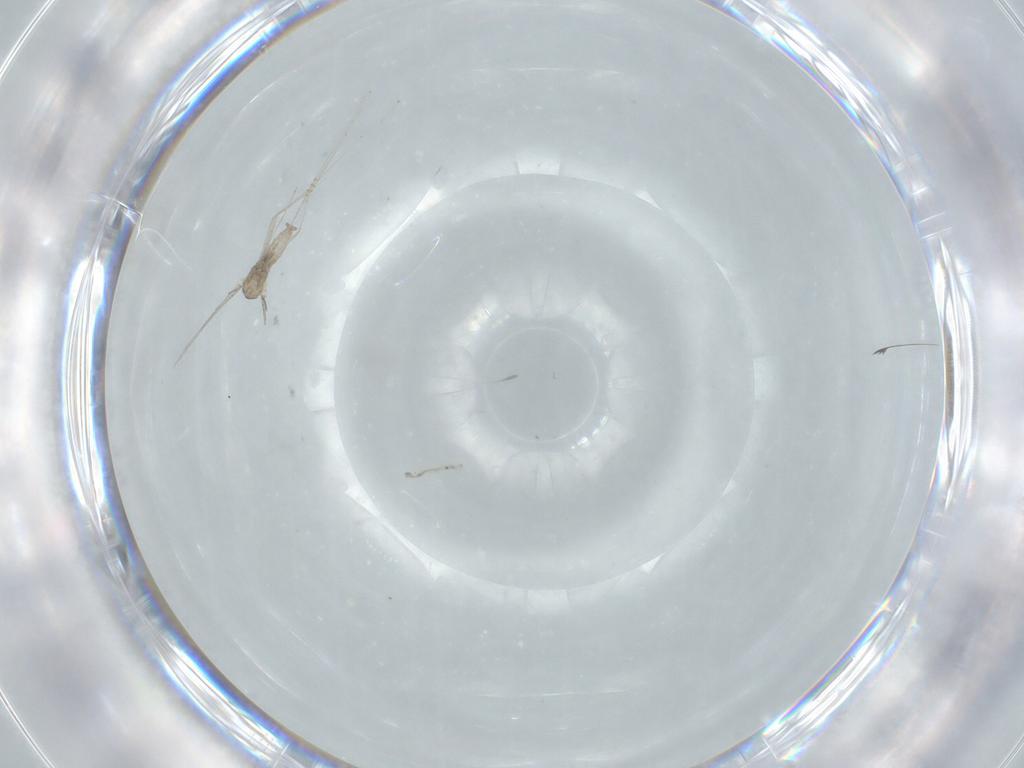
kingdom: Animalia
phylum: Arthropoda
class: Insecta
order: Diptera
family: Cecidomyiidae
